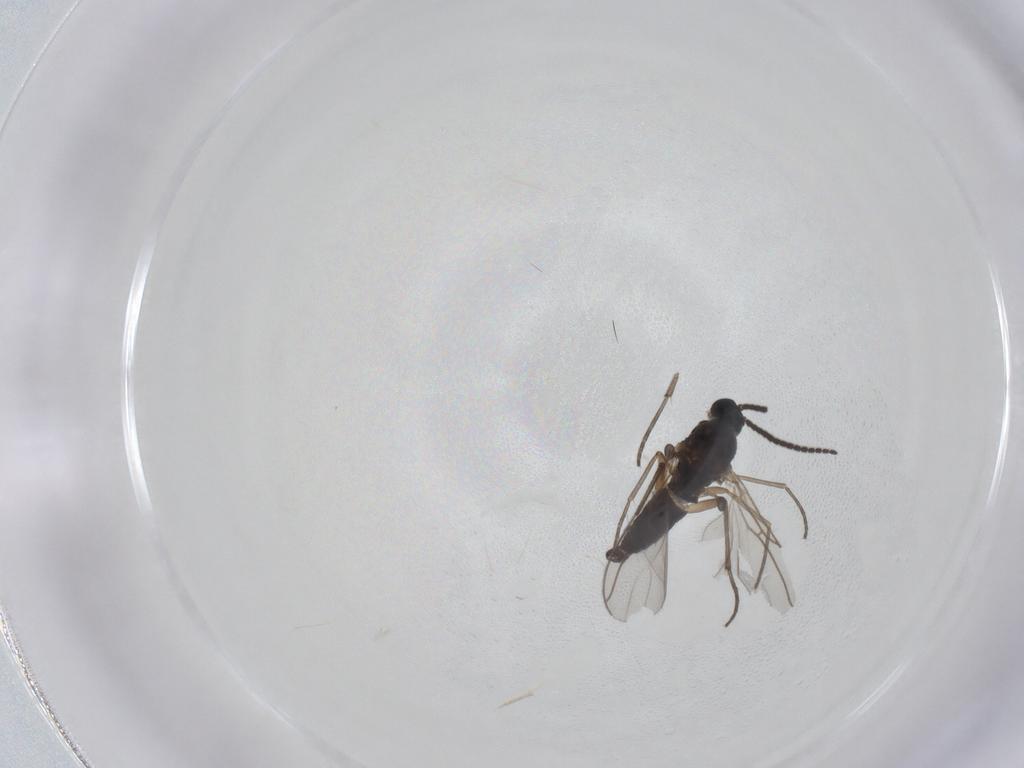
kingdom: Animalia
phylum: Arthropoda
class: Insecta
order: Diptera
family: Sciaridae
